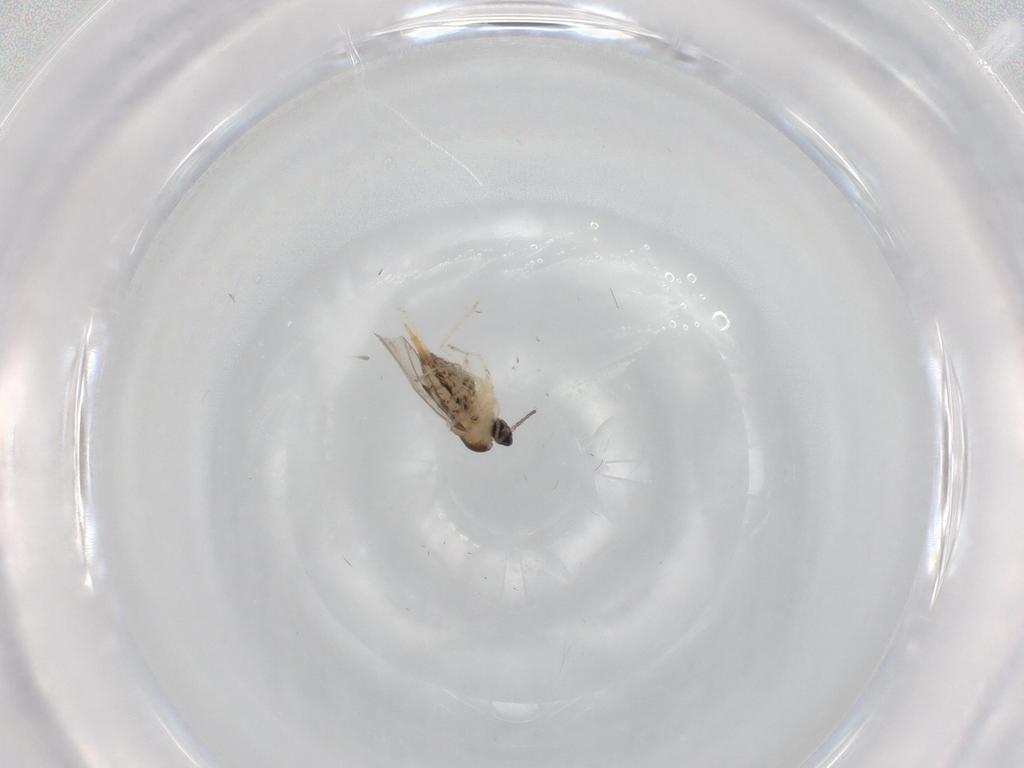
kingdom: Animalia
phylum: Arthropoda
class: Insecta
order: Diptera
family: Cecidomyiidae
